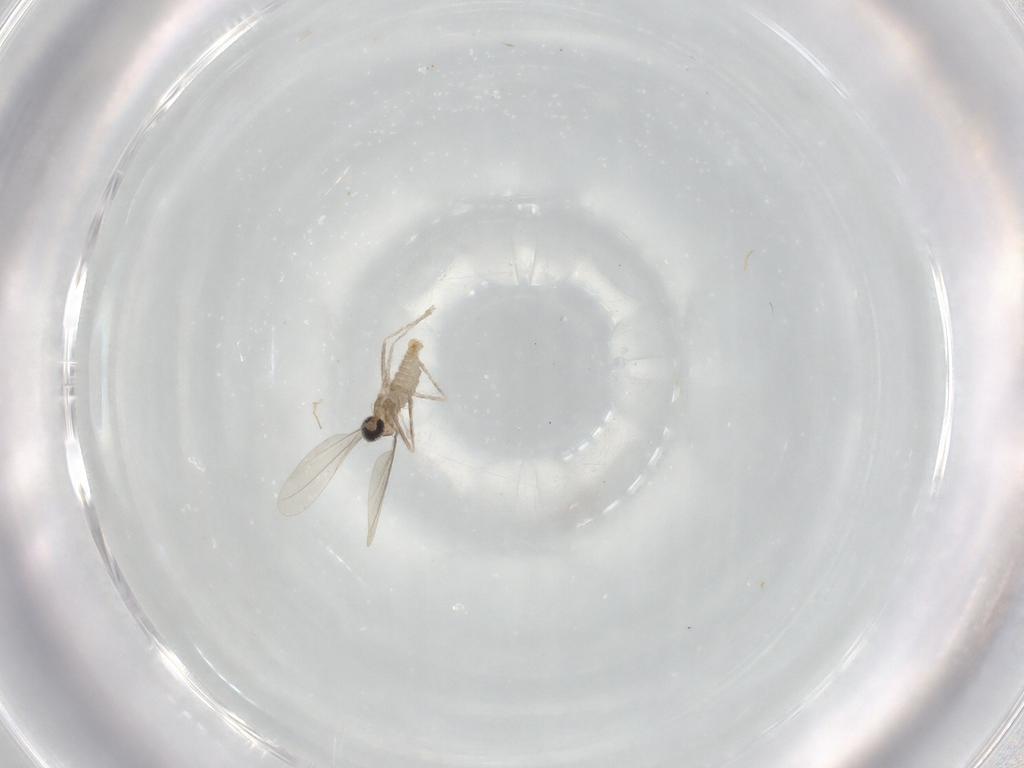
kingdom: Animalia
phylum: Arthropoda
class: Insecta
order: Diptera
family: Cecidomyiidae
